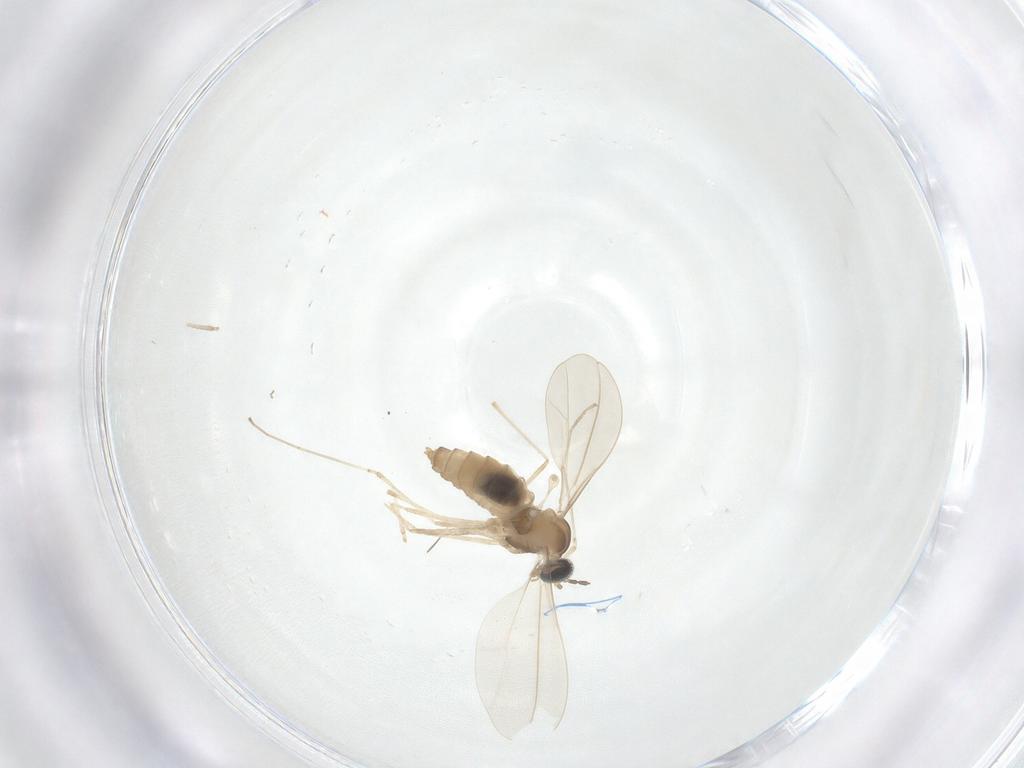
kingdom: Animalia
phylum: Arthropoda
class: Insecta
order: Diptera
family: Cecidomyiidae
